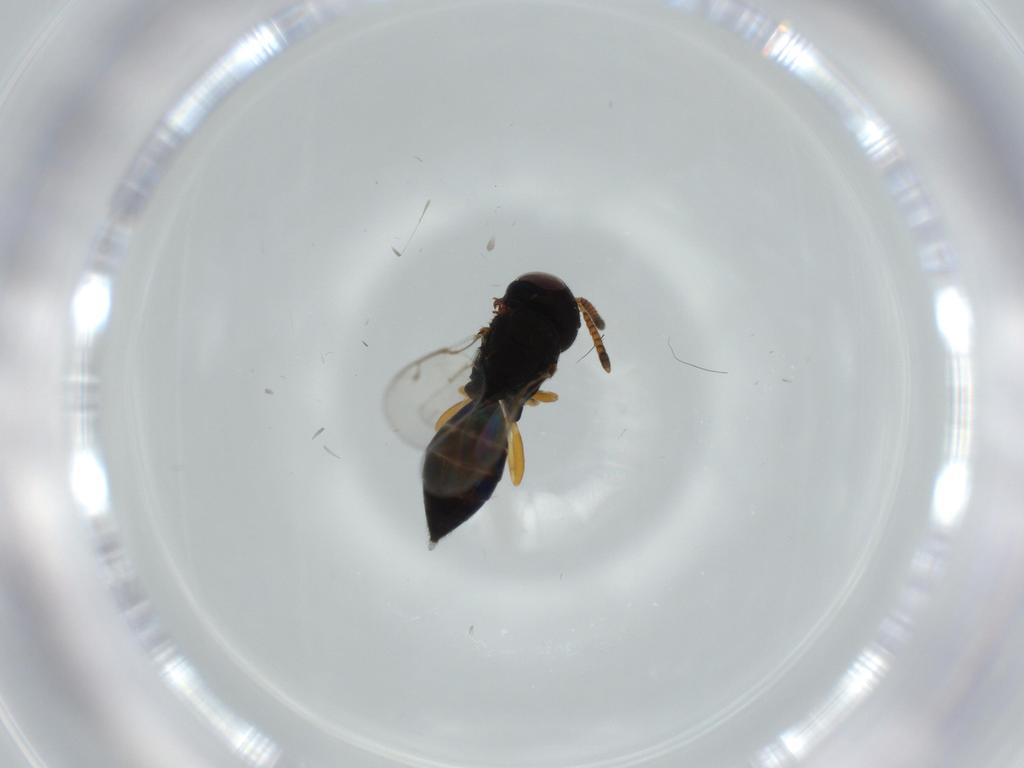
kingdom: Animalia
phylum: Arthropoda
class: Insecta
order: Hymenoptera
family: Pteromalidae
